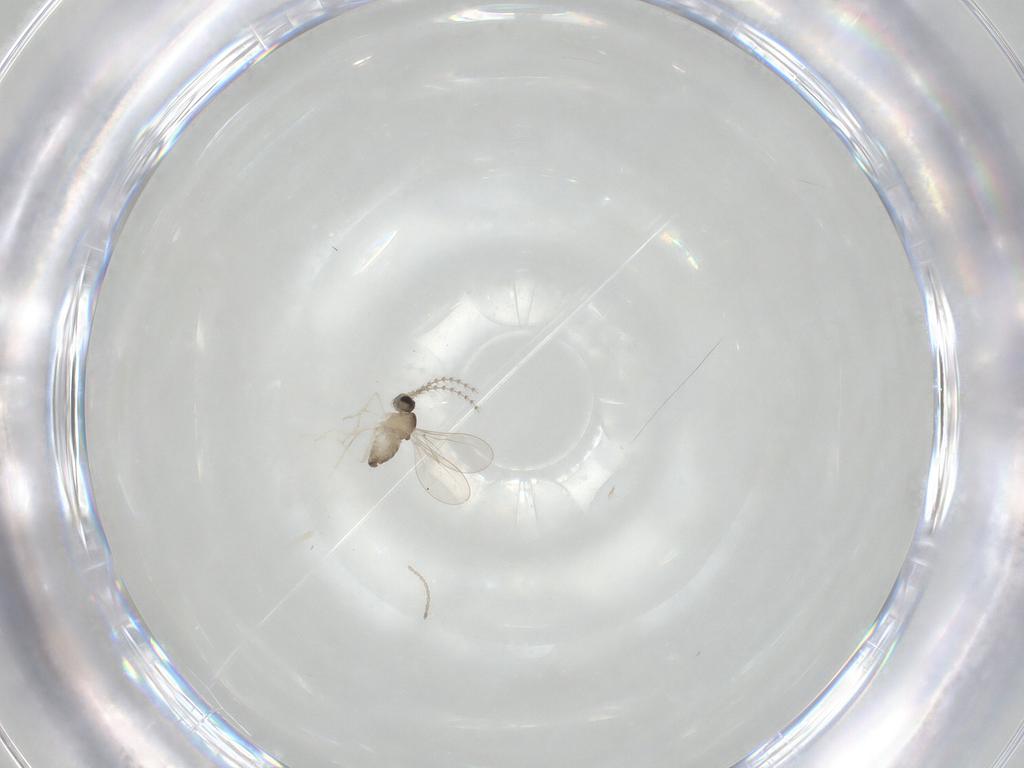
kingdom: Animalia
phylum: Arthropoda
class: Insecta
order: Diptera
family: Cecidomyiidae
